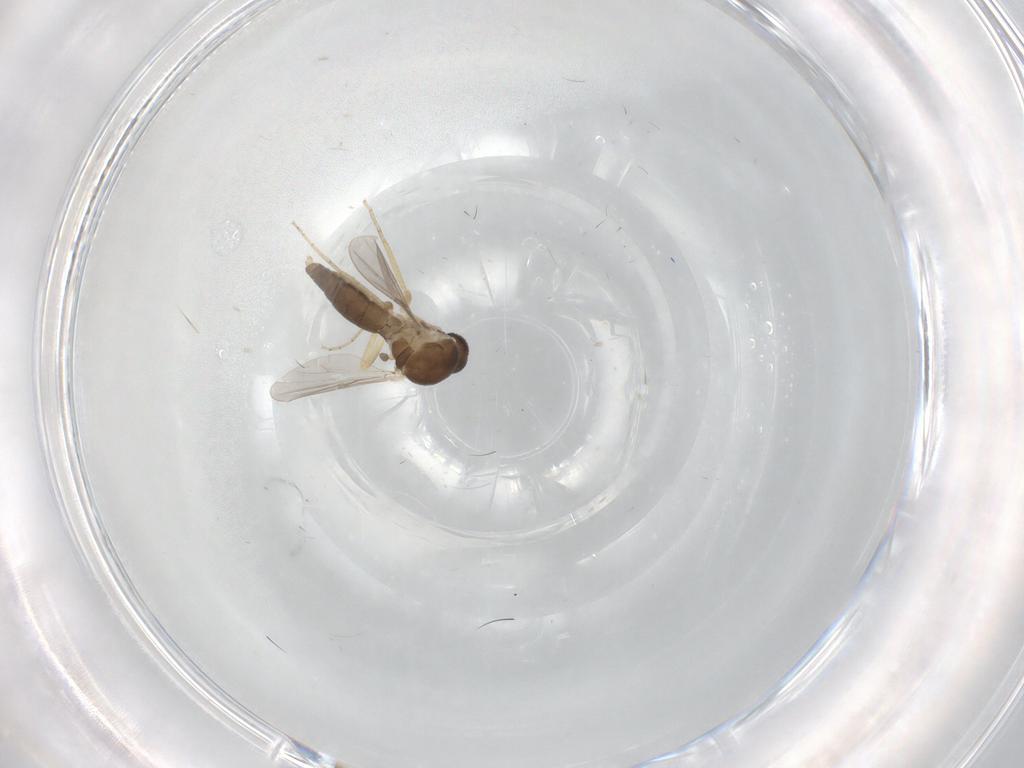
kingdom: Animalia
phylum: Arthropoda
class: Insecta
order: Diptera
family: Ceratopogonidae
